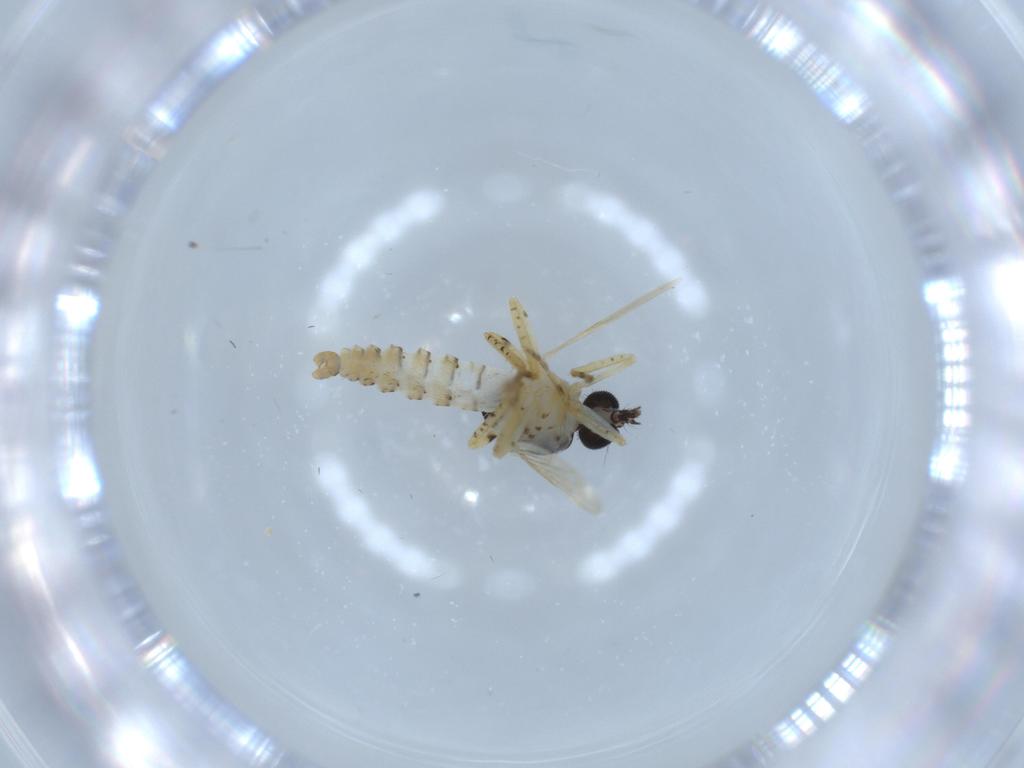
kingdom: Animalia
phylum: Arthropoda
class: Insecta
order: Diptera
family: Ceratopogonidae
